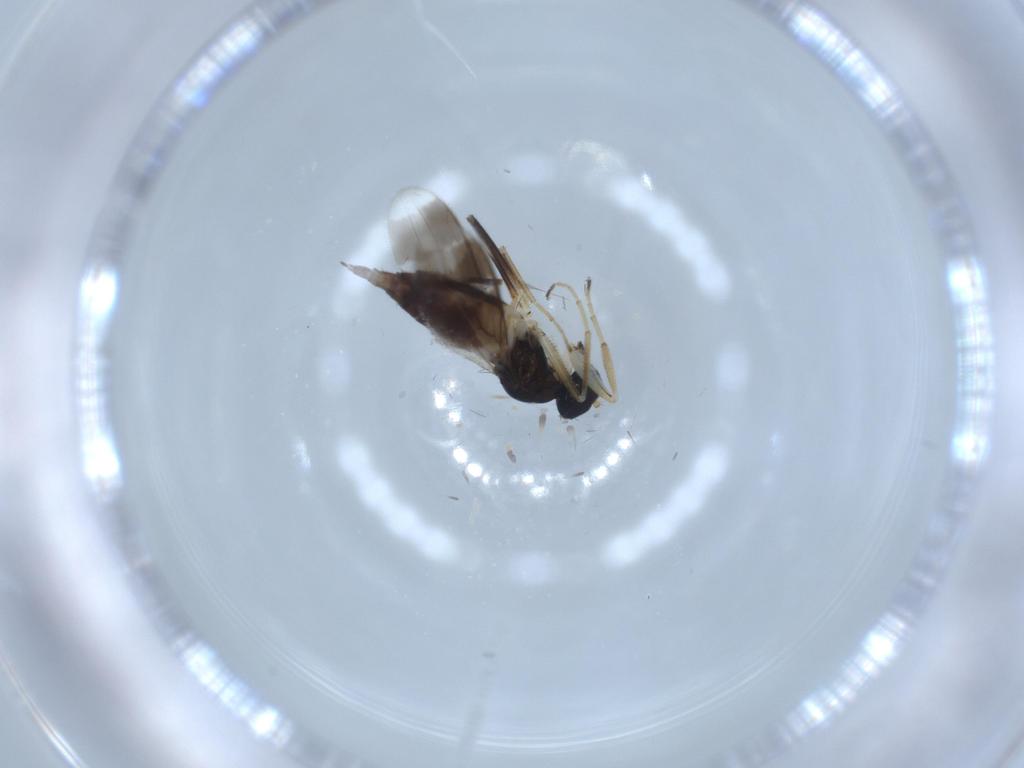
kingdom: Animalia
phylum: Arthropoda
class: Insecta
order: Diptera
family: Hybotidae
